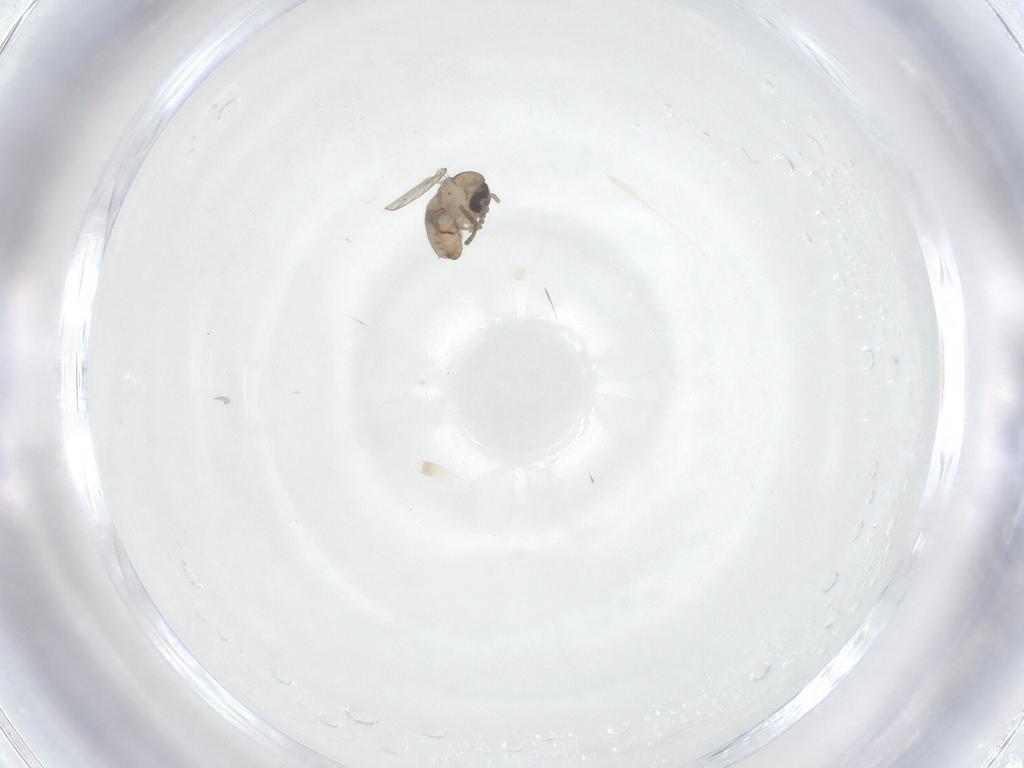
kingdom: Animalia
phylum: Arthropoda
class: Insecta
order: Diptera
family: Psychodidae
